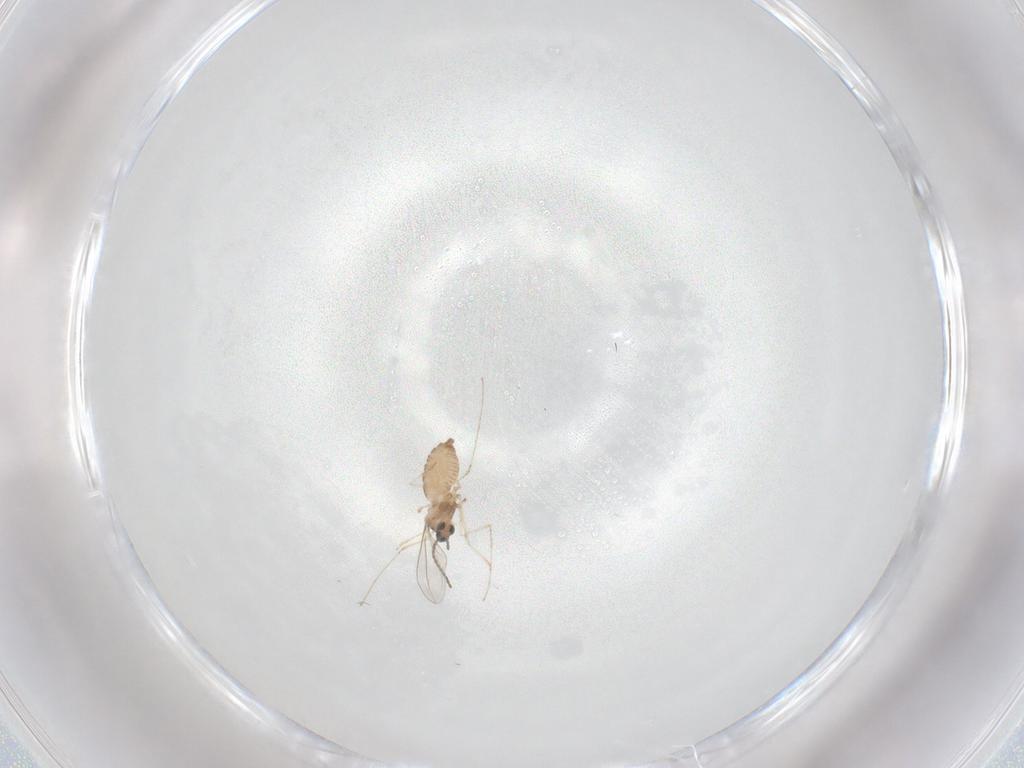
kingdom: Animalia
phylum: Arthropoda
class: Insecta
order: Diptera
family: Cecidomyiidae
